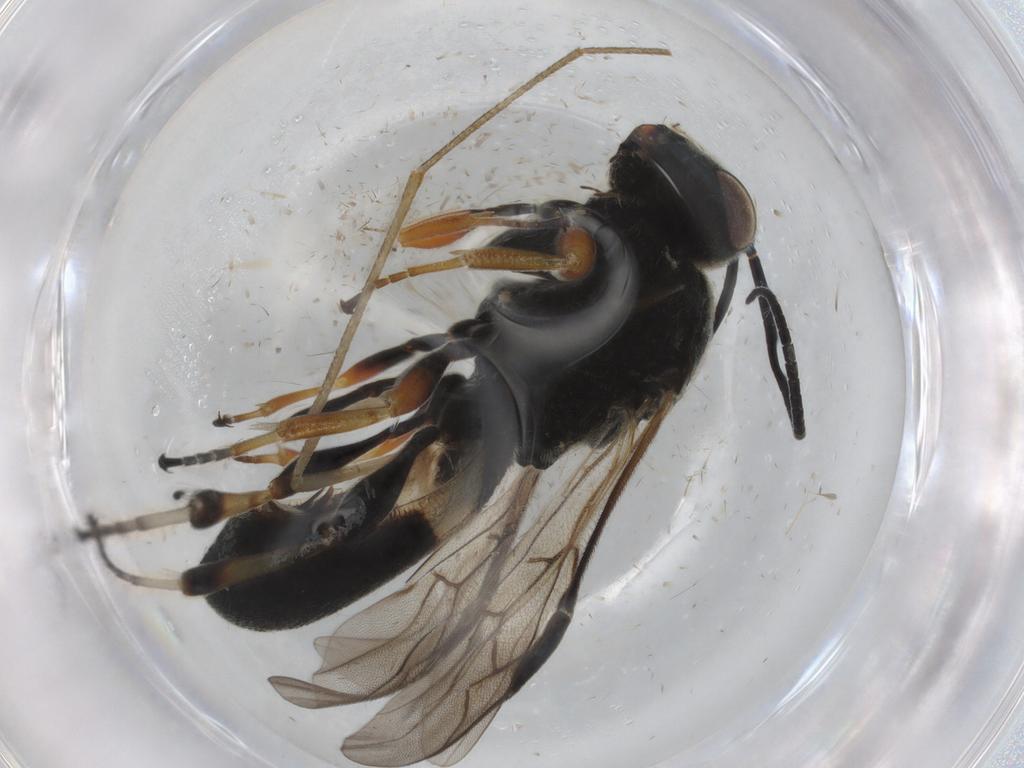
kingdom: Animalia
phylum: Arthropoda
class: Insecta
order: Hymenoptera
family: Braconidae
